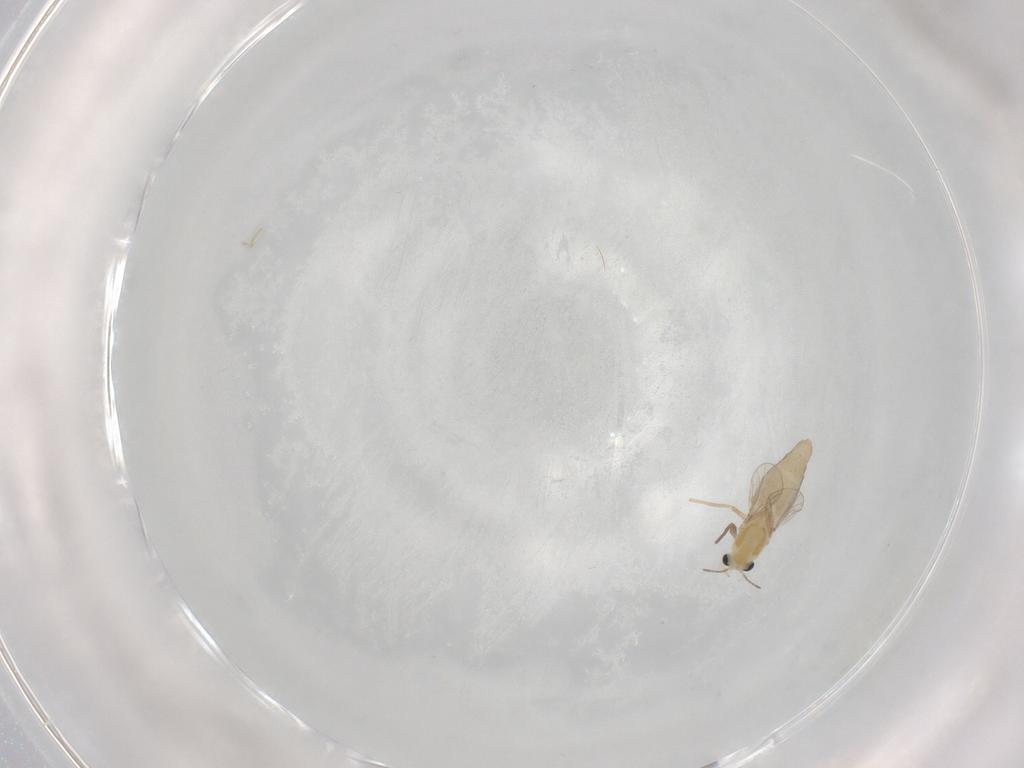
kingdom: Animalia
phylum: Arthropoda
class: Insecta
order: Diptera
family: Chironomidae
